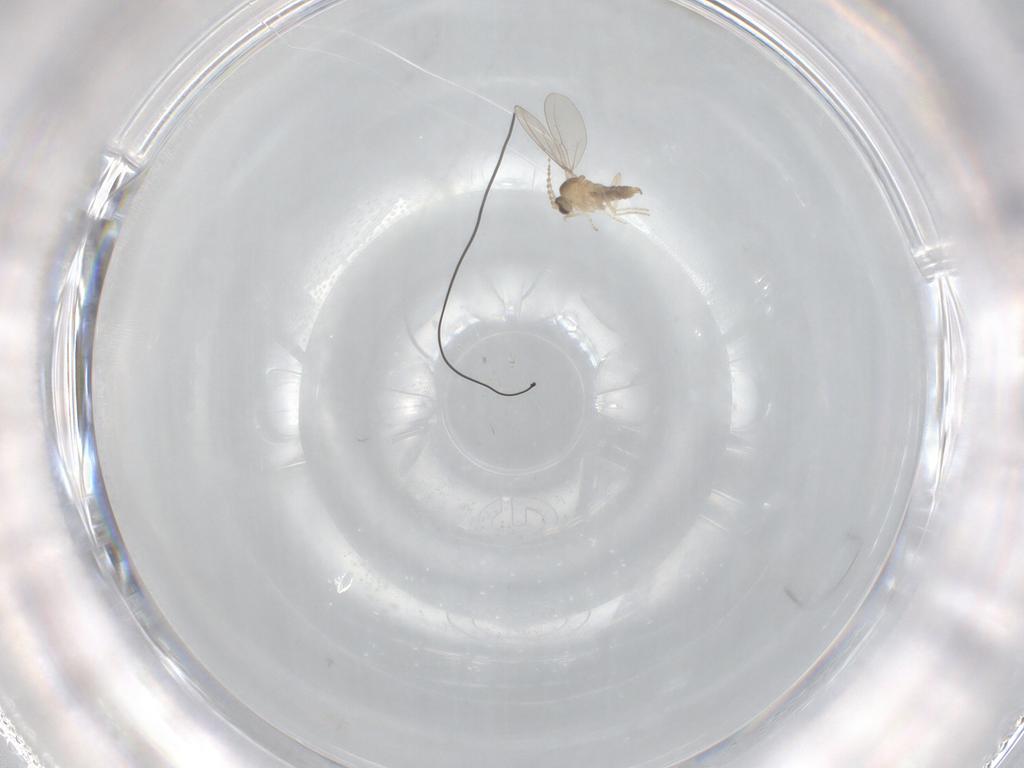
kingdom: Animalia
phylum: Arthropoda
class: Insecta
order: Diptera
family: Cecidomyiidae
